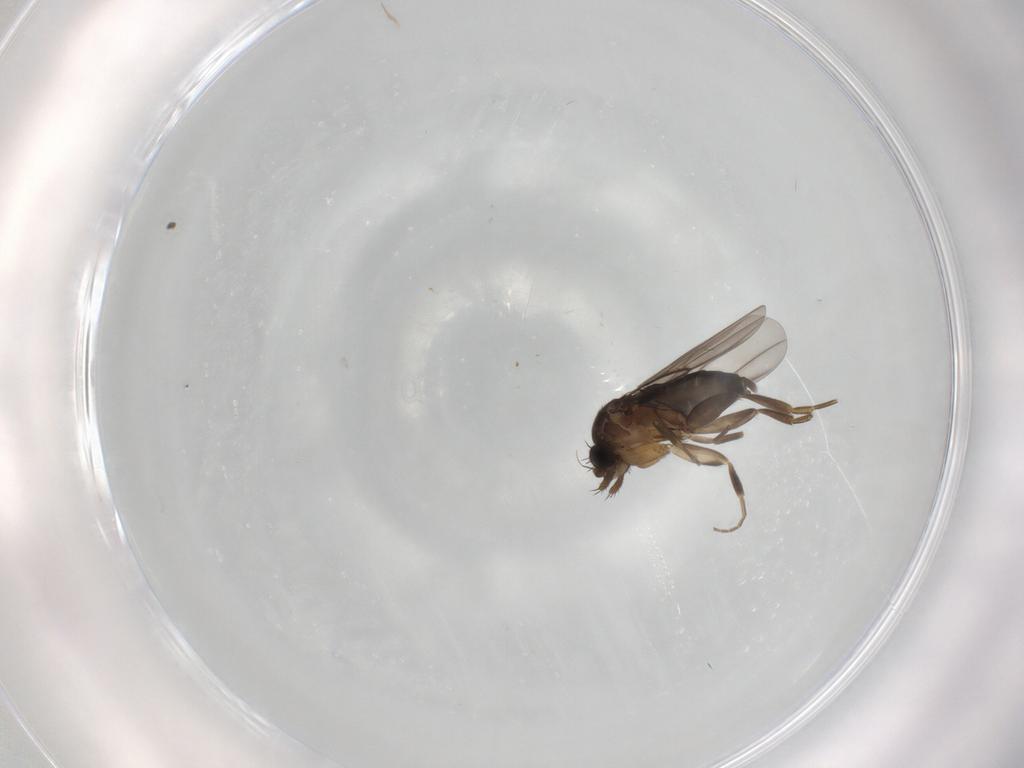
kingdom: Animalia
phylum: Arthropoda
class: Insecta
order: Diptera
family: Phoridae
